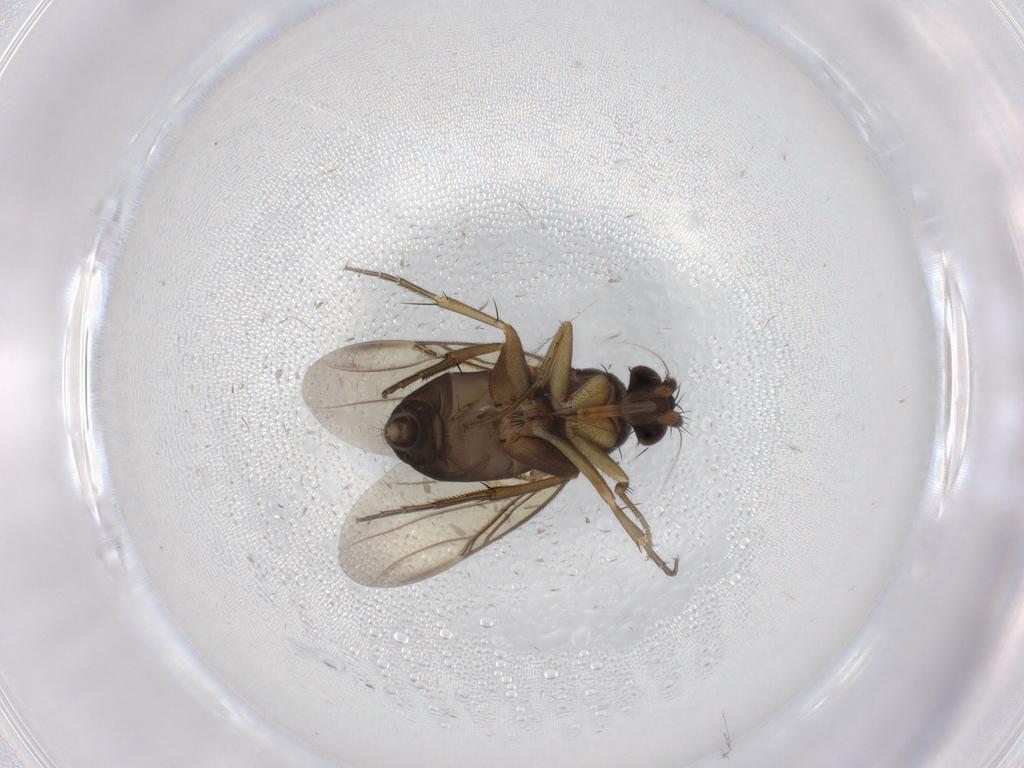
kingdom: Animalia
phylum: Arthropoda
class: Insecta
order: Diptera
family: Phoridae
